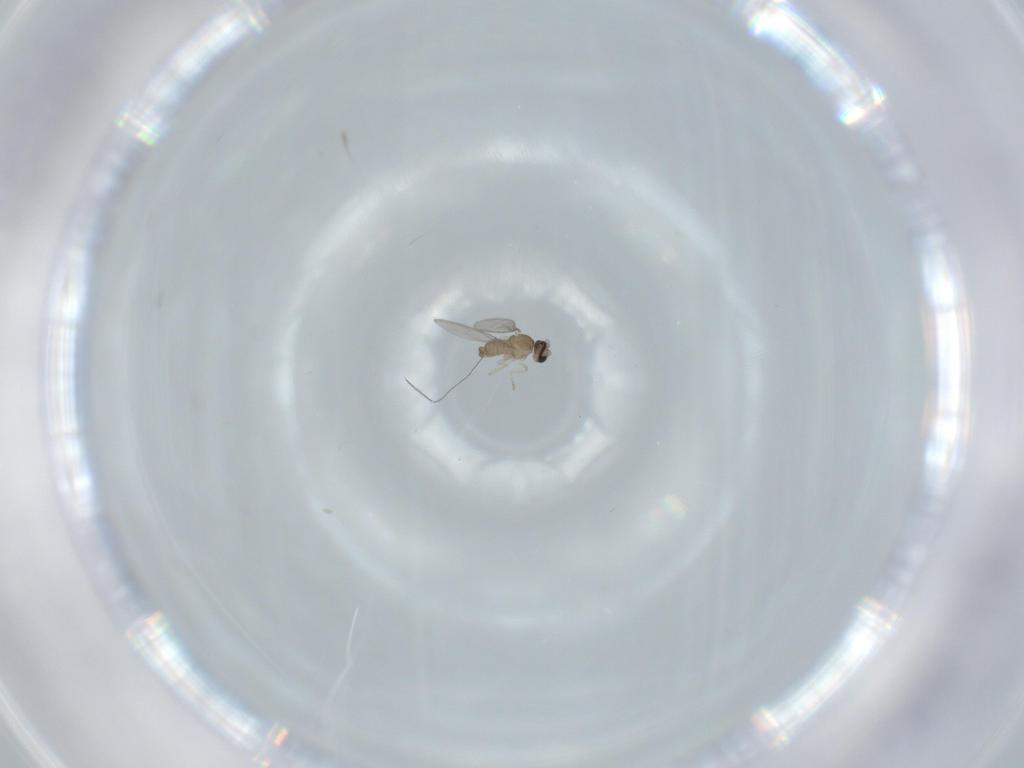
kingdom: Animalia
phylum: Arthropoda
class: Insecta
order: Diptera
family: Cecidomyiidae
